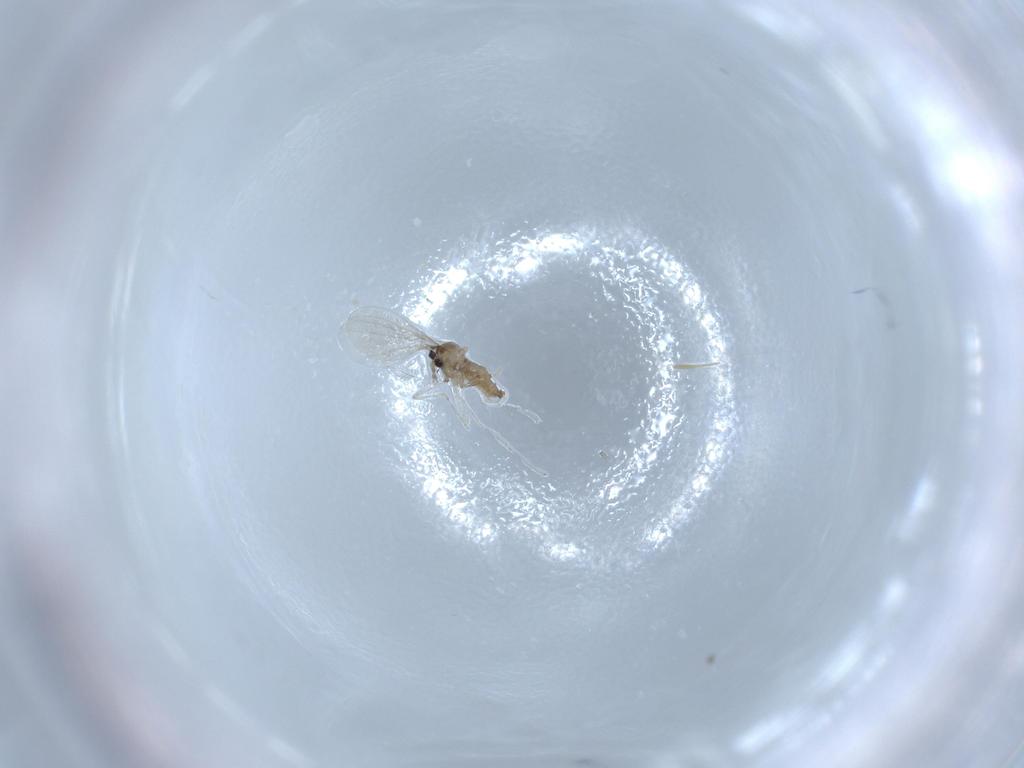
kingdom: Animalia
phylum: Arthropoda
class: Insecta
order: Diptera
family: Cecidomyiidae
